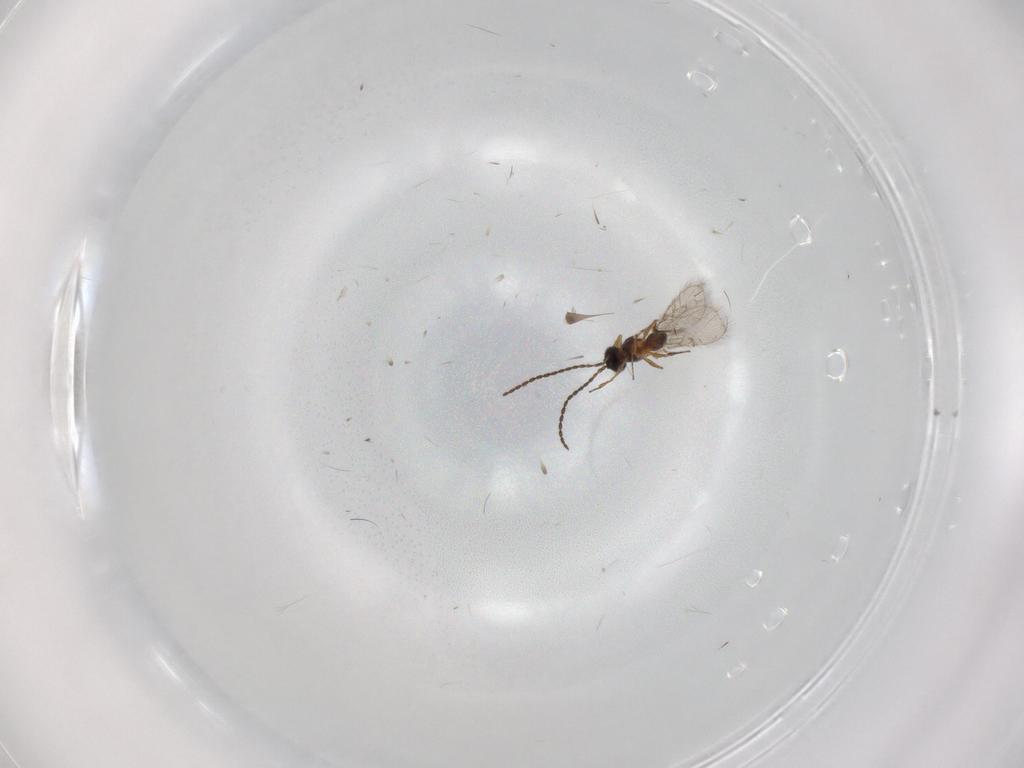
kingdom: Animalia
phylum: Arthropoda
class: Insecta
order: Hymenoptera
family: Figitidae
